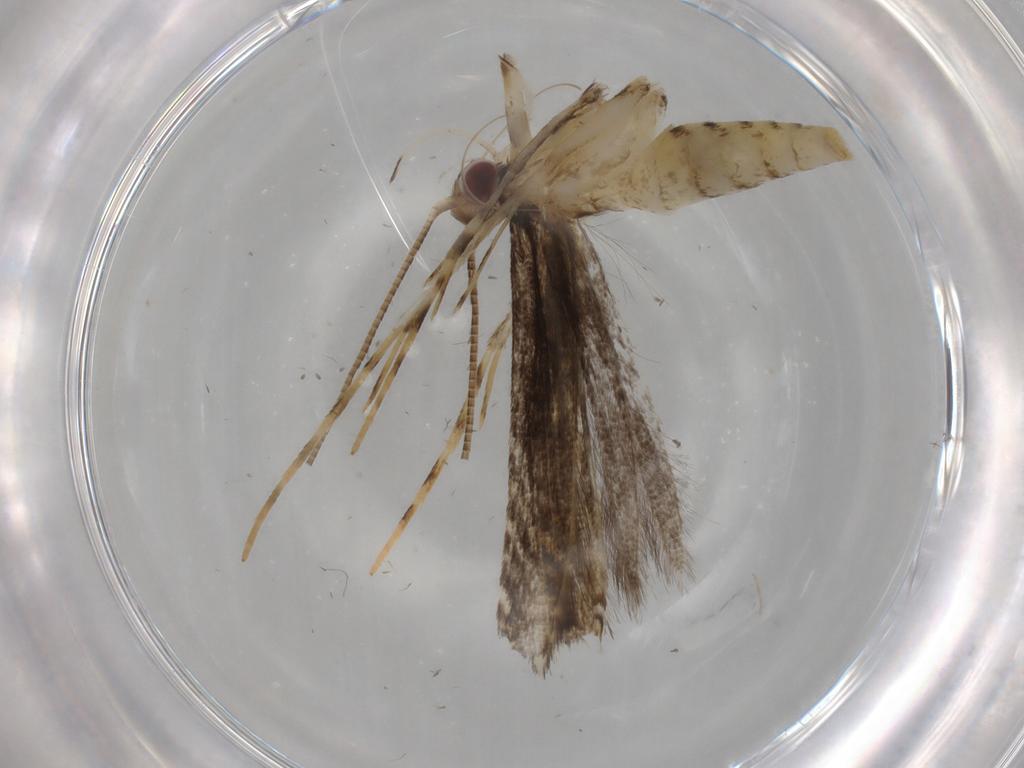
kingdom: Animalia
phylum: Arthropoda
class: Insecta
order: Lepidoptera
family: Gracillariidae
